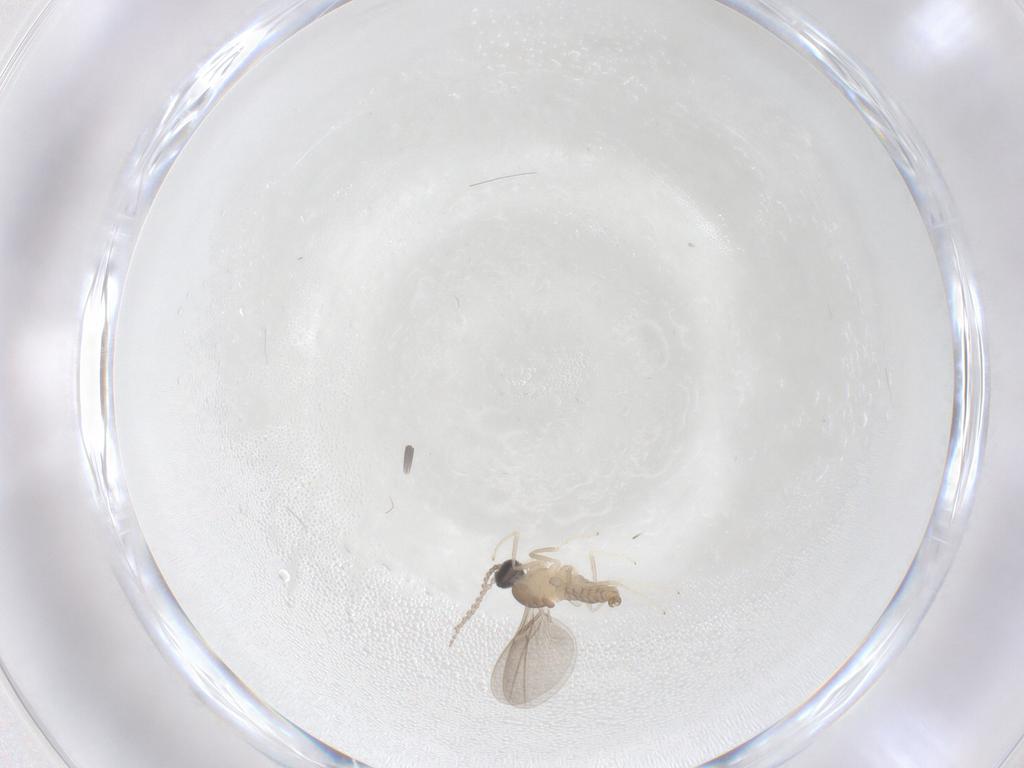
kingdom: Animalia
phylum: Arthropoda
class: Insecta
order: Diptera
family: Cecidomyiidae
